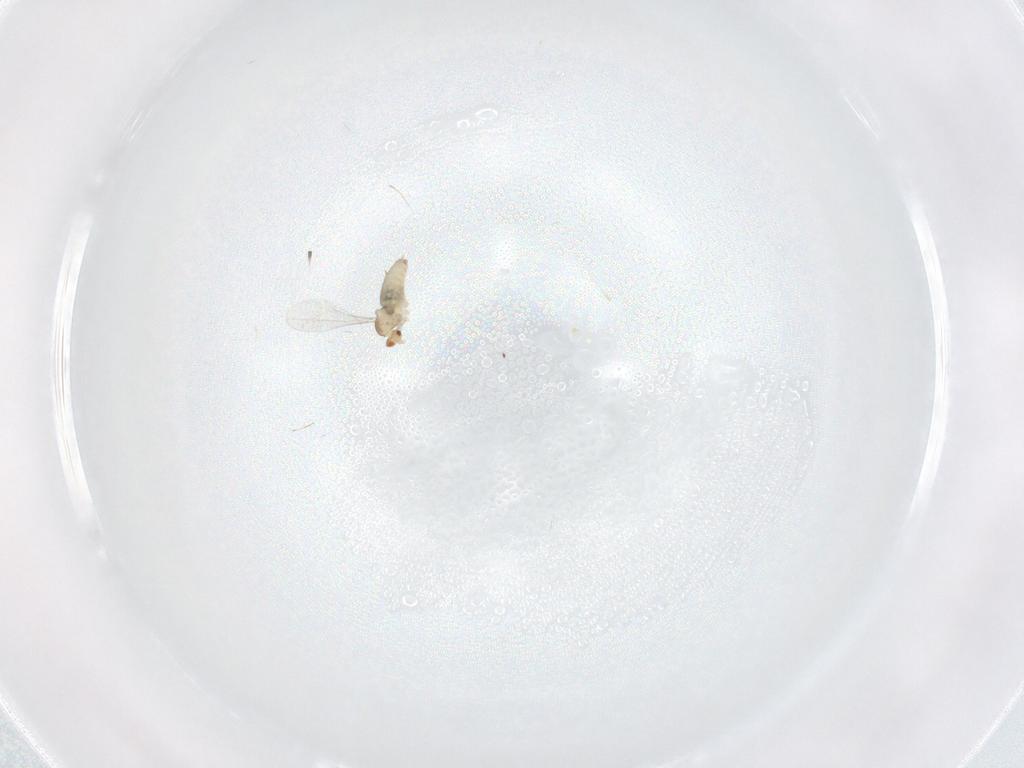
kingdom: Animalia
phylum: Arthropoda
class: Insecta
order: Diptera
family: Cecidomyiidae
